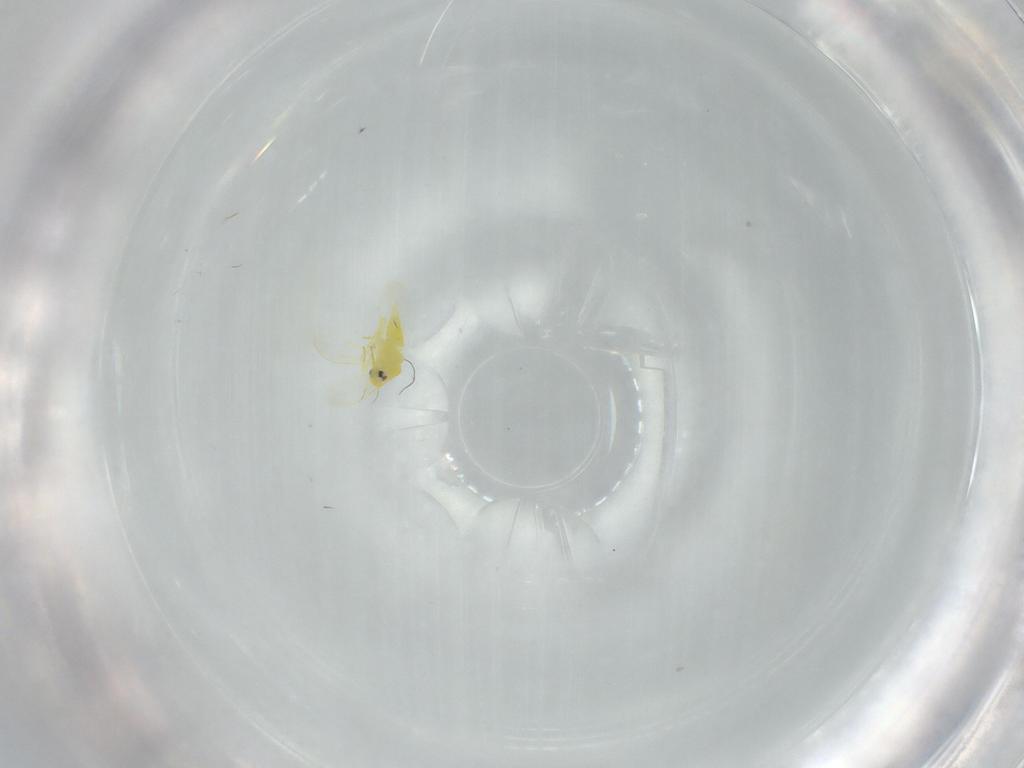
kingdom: Animalia
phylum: Arthropoda
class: Insecta
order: Hemiptera
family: Aleyrodidae
